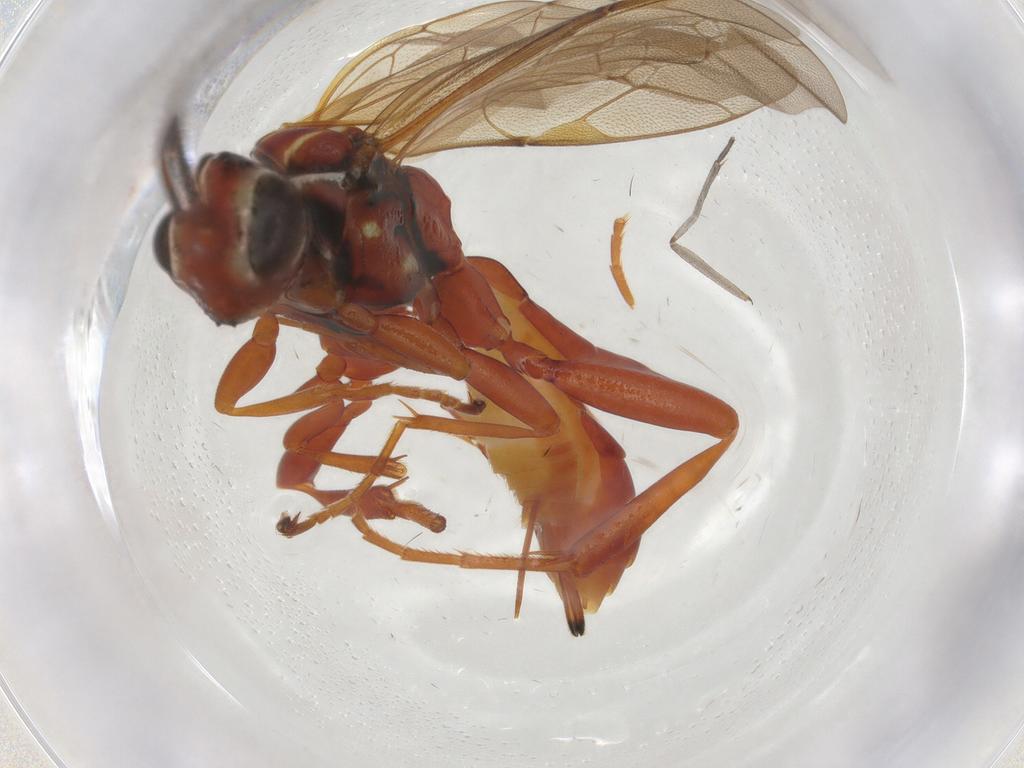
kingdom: Animalia
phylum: Arthropoda
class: Insecta
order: Hymenoptera
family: Ichneumonidae
